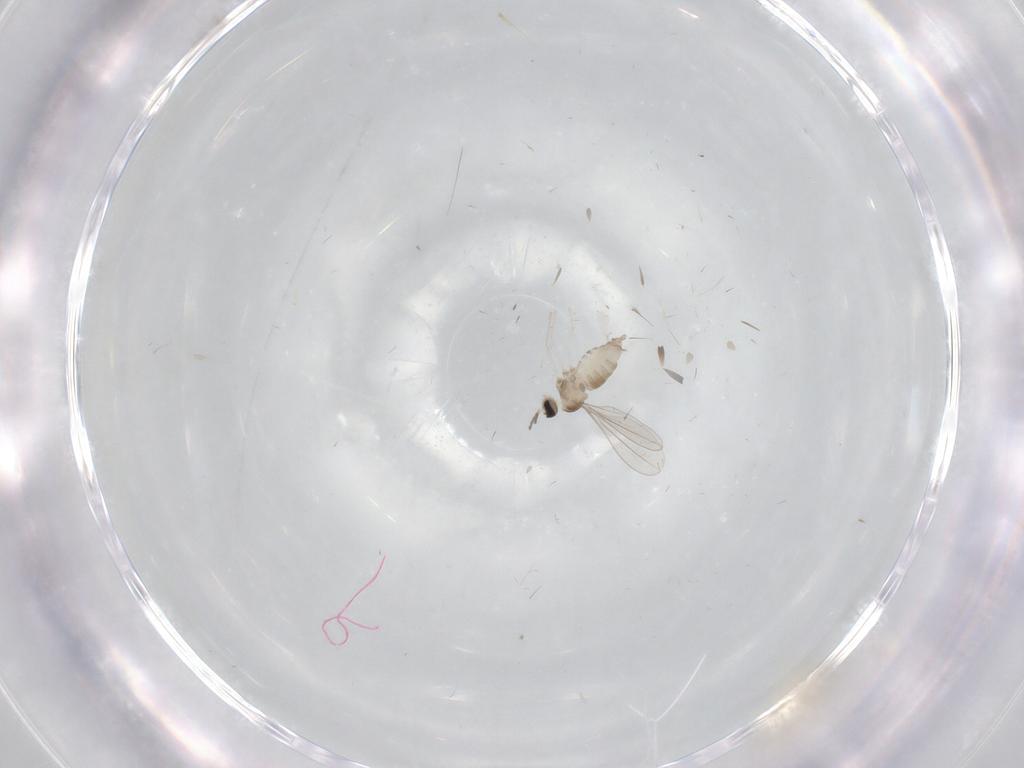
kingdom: Animalia
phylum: Arthropoda
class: Insecta
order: Diptera
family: Cecidomyiidae
